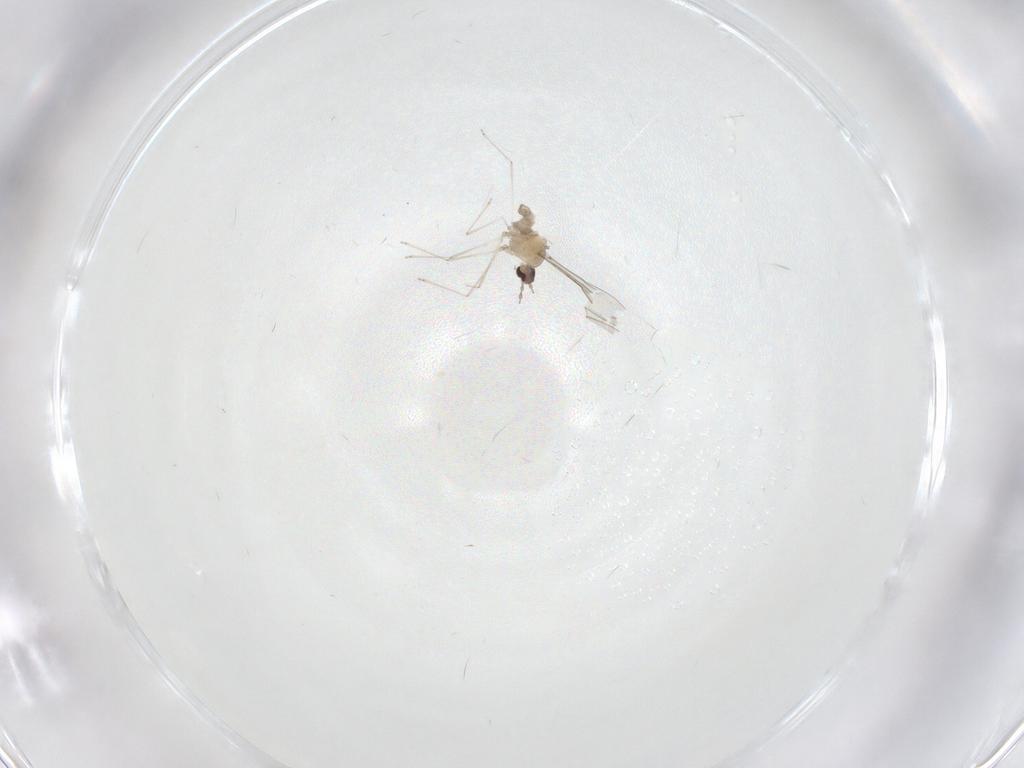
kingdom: Animalia
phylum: Arthropoda
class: Insecta
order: Diptera
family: Cecidomyiidae
